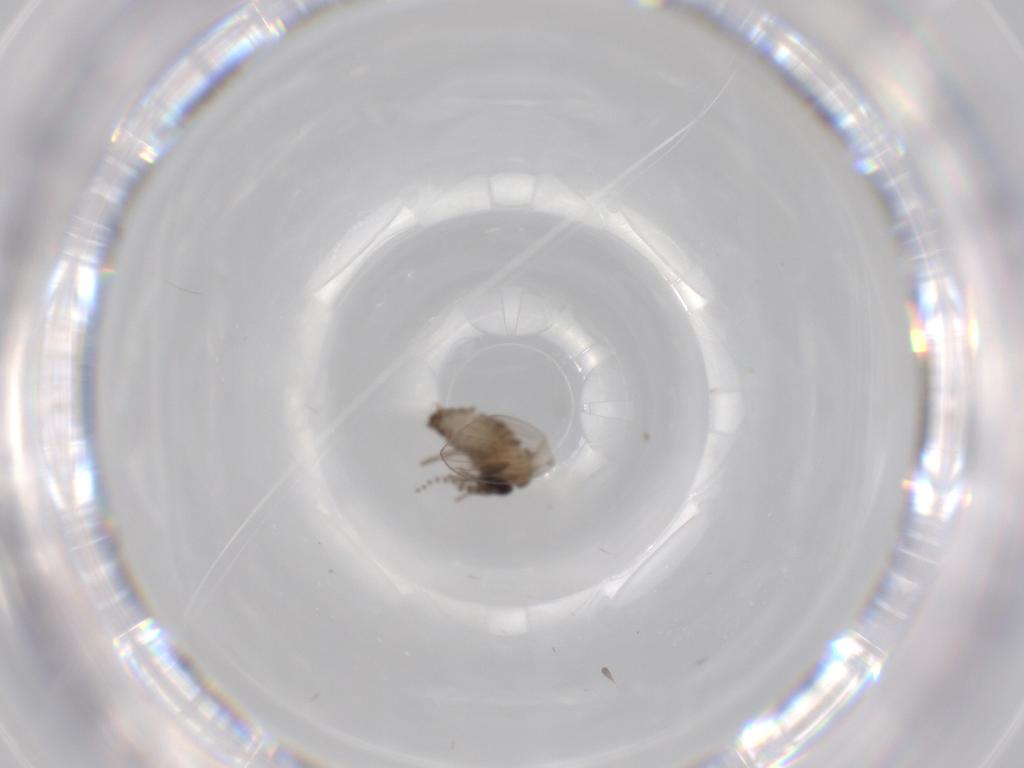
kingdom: Animalia
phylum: Arthropoda
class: Insecta
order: Diptera
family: Psychodidae
